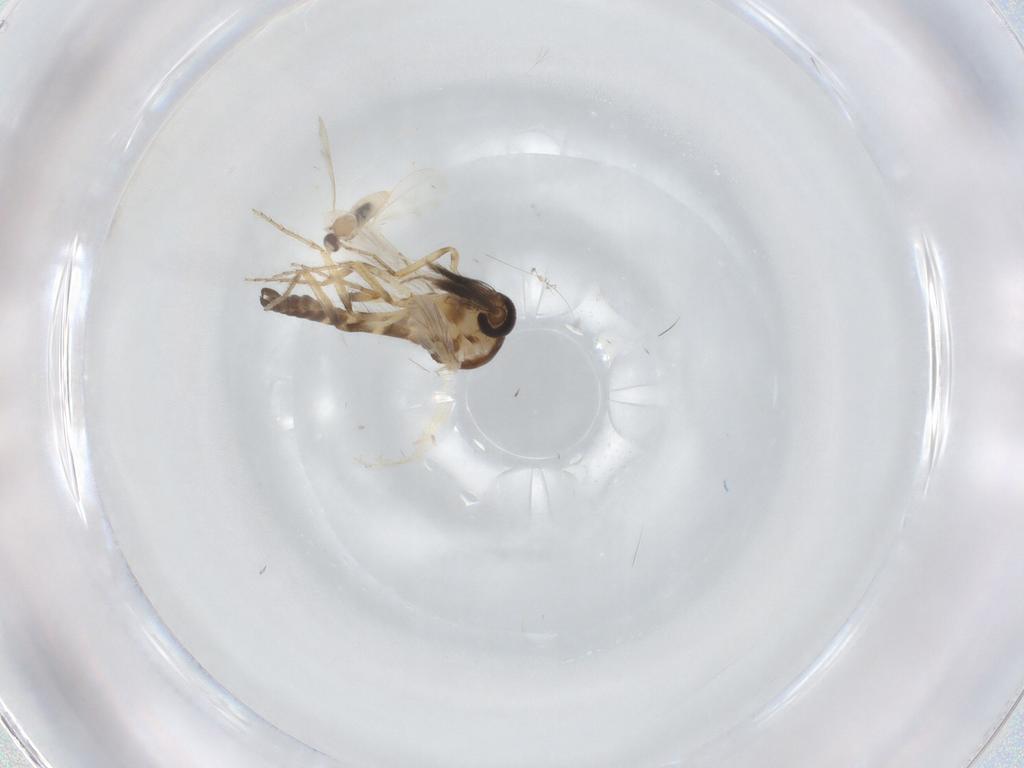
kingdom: Animalia
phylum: Arthropoda
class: Insecta
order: Diptera
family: Ceratopogonidae
